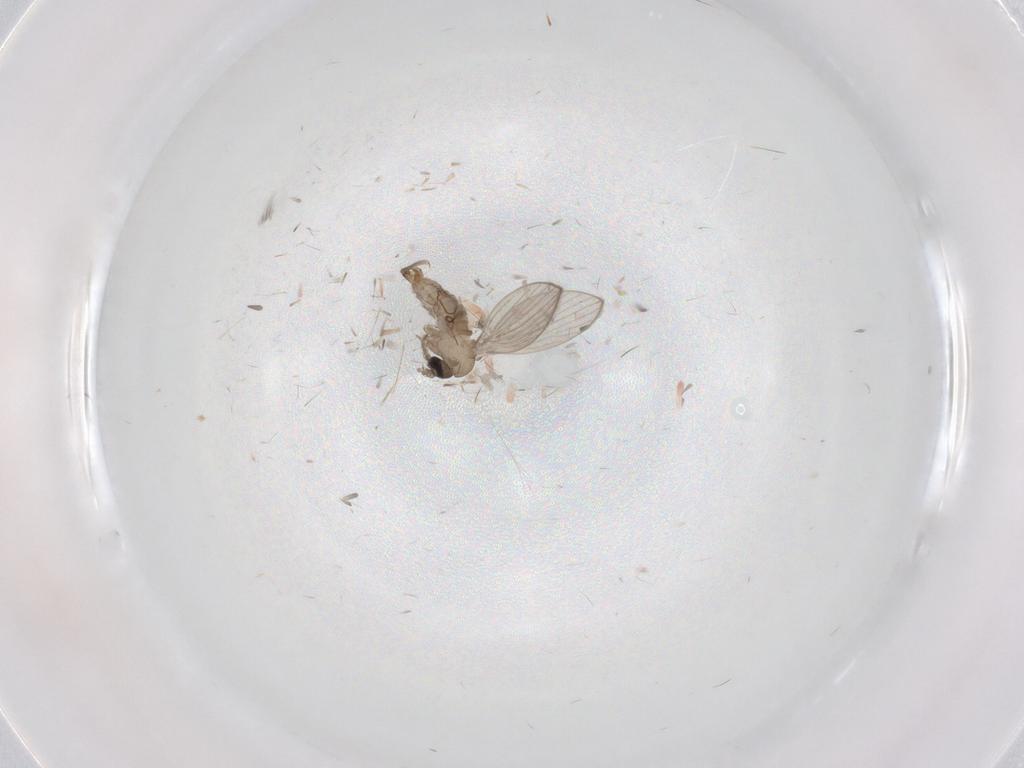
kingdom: Animalia
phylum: Arthropoda
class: Insecta
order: Diptera
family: Psychodidae
